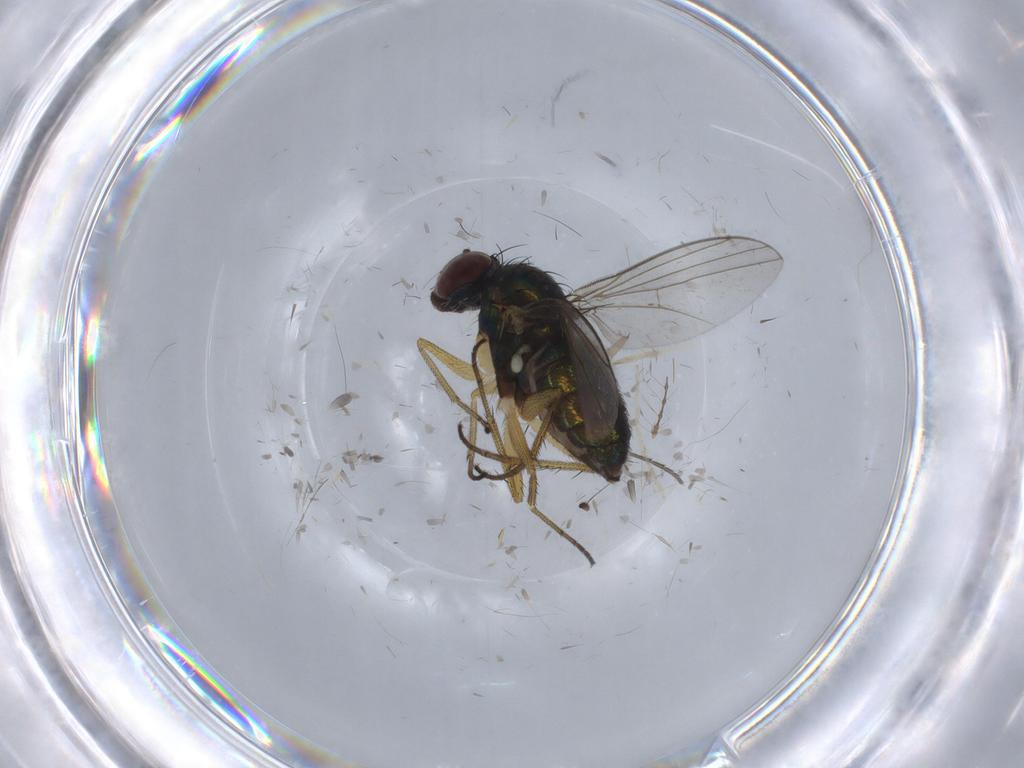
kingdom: Animalia
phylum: Arthropoda
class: Insecta
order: Diptera
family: Chironomidae
